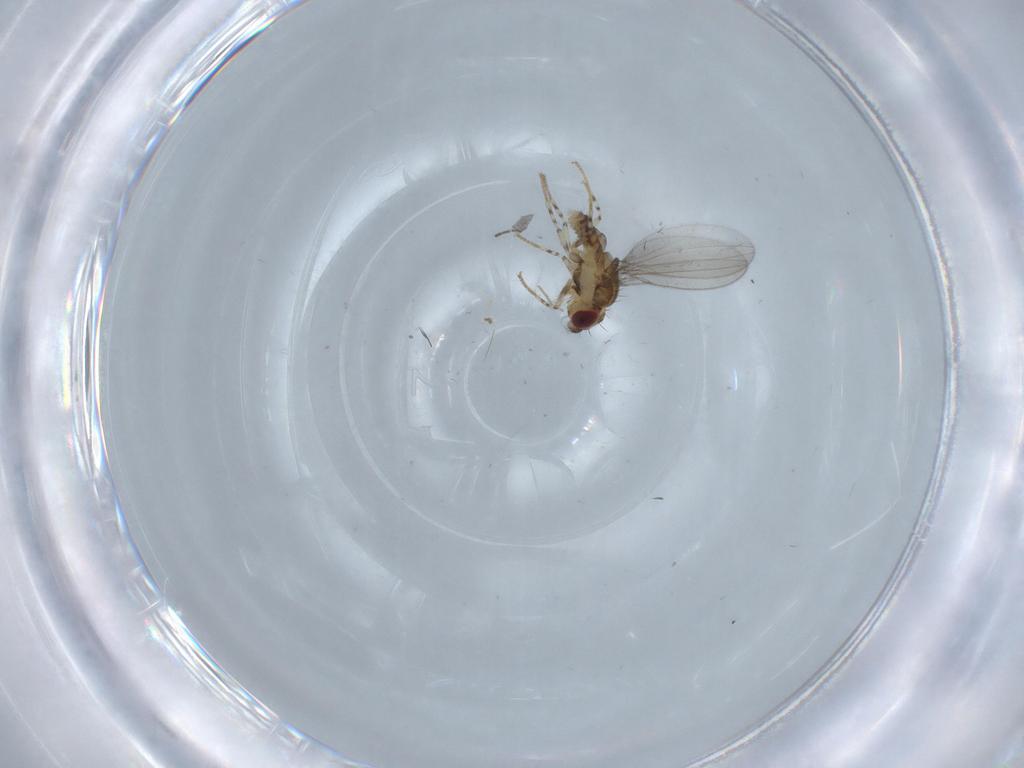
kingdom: Animalia
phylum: Arthropoda
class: Insecta
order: Diptera
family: Asteiidae
